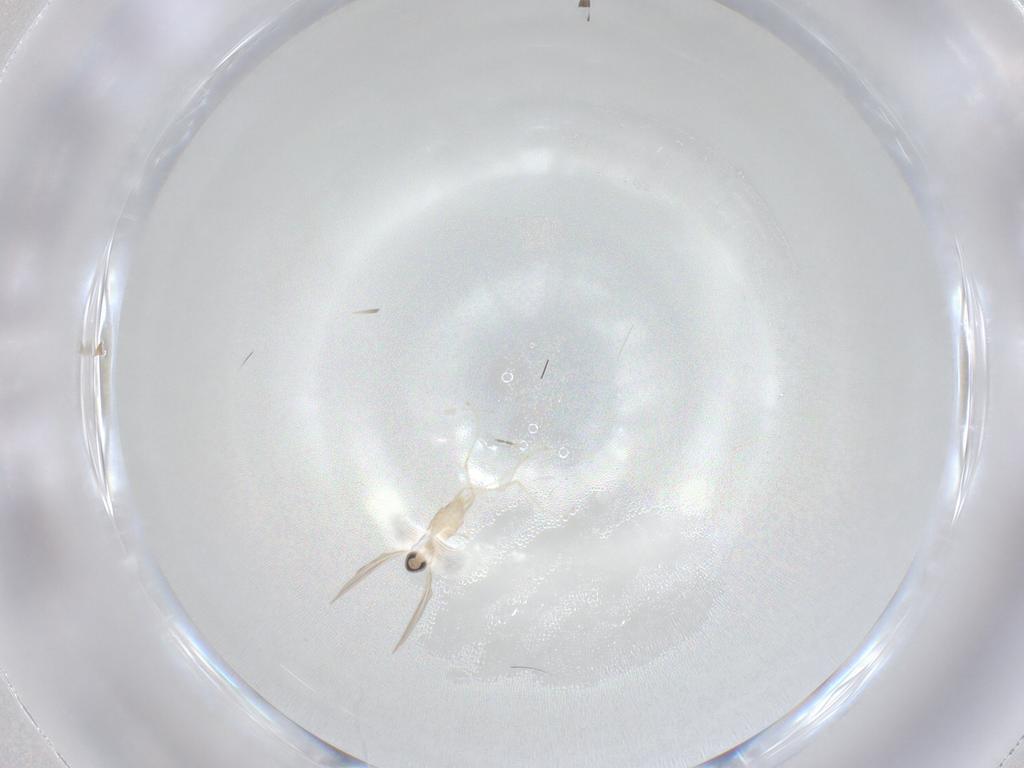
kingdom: Animalia
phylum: Arthropoda
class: Insecta
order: Diptera
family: Cecidomyiidae
